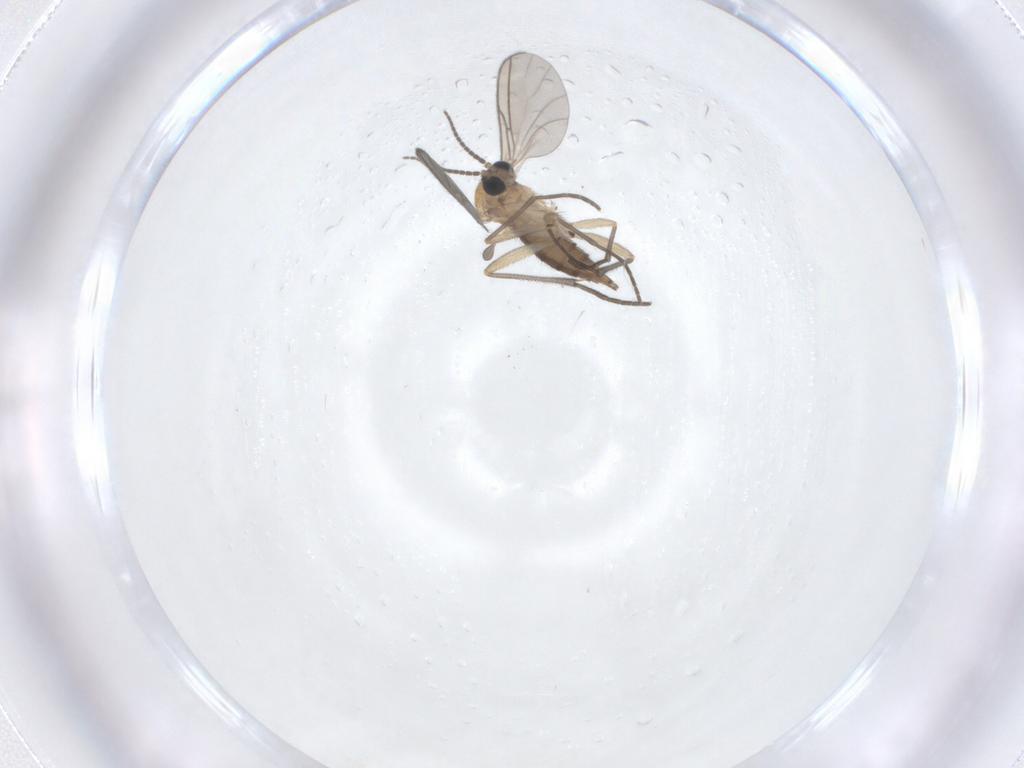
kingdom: Animalia
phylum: Arthropoda
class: Insecta
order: Diptera
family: Sciaridae
